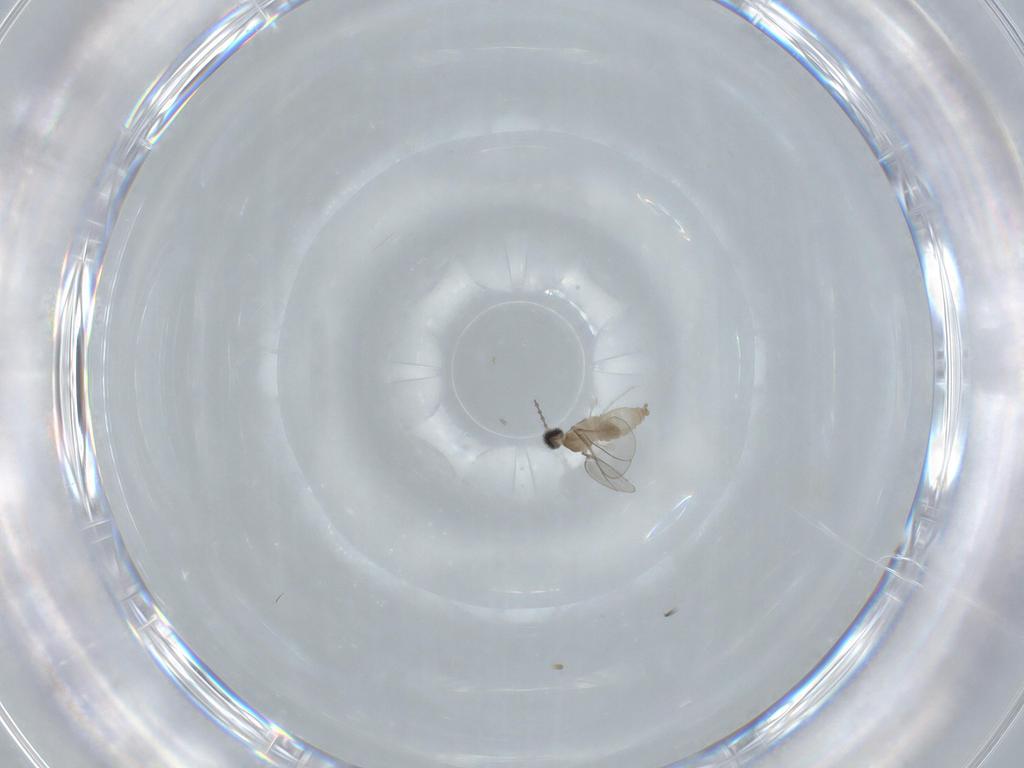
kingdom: Animalia
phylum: Arthropoda
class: Insecta
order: Diptera
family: Cecidomyiidae
